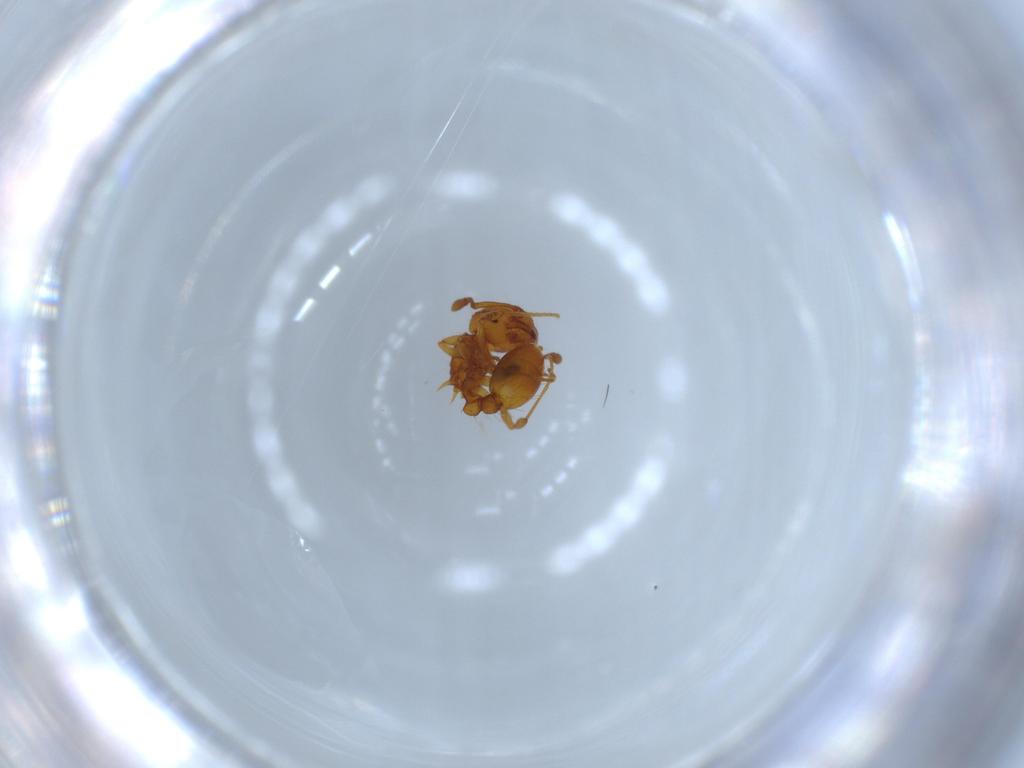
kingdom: Animalia
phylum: Arthropoda
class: Insecta
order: Hymenoptera
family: Formicidae
